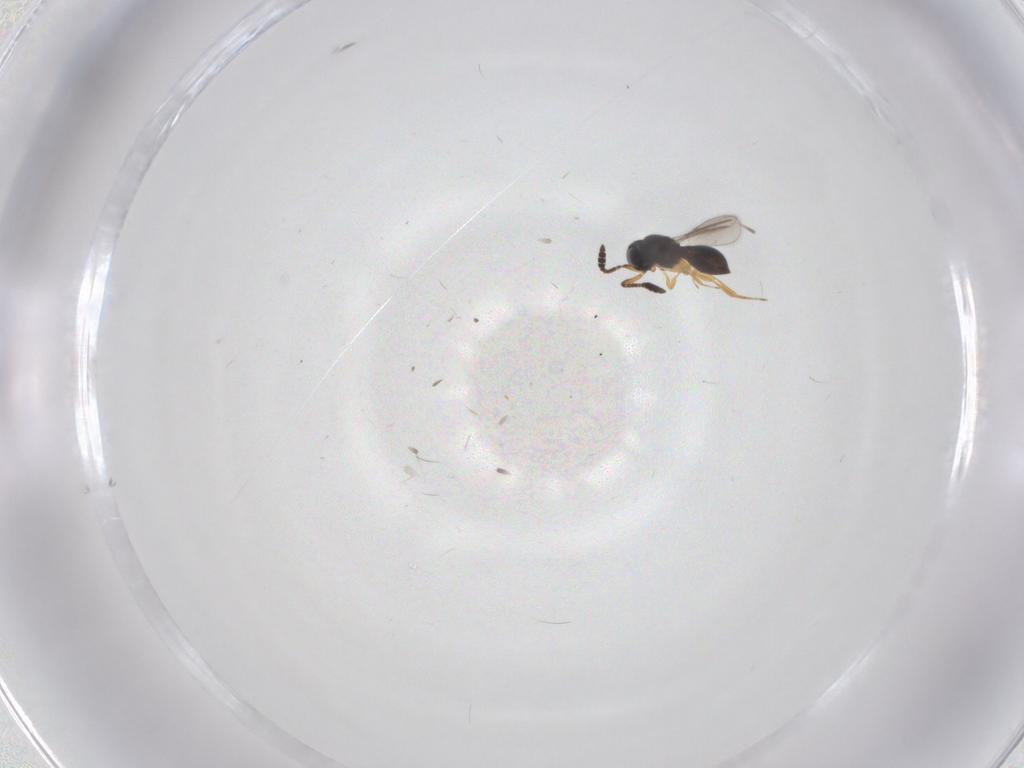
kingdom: Animalia
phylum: Arthropoda
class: Insecta
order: Hymenoptera
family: Scelionidae
